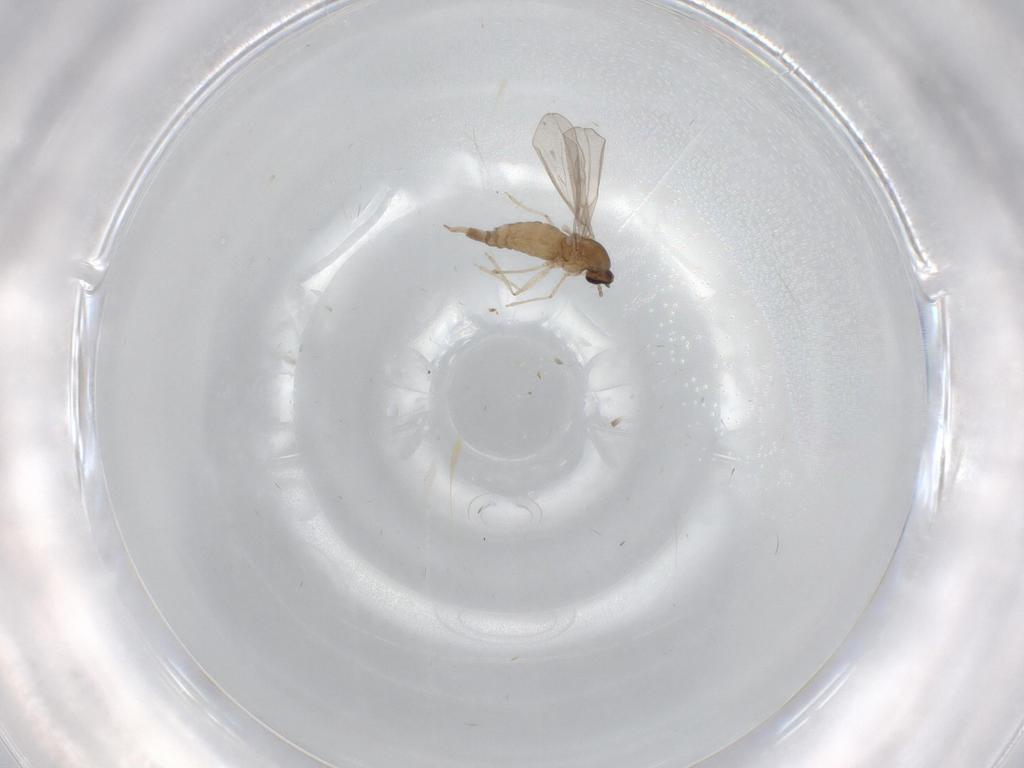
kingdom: Animalia
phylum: Arthropoda
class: Insecta
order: Diptera
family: Cecidomyiidae
